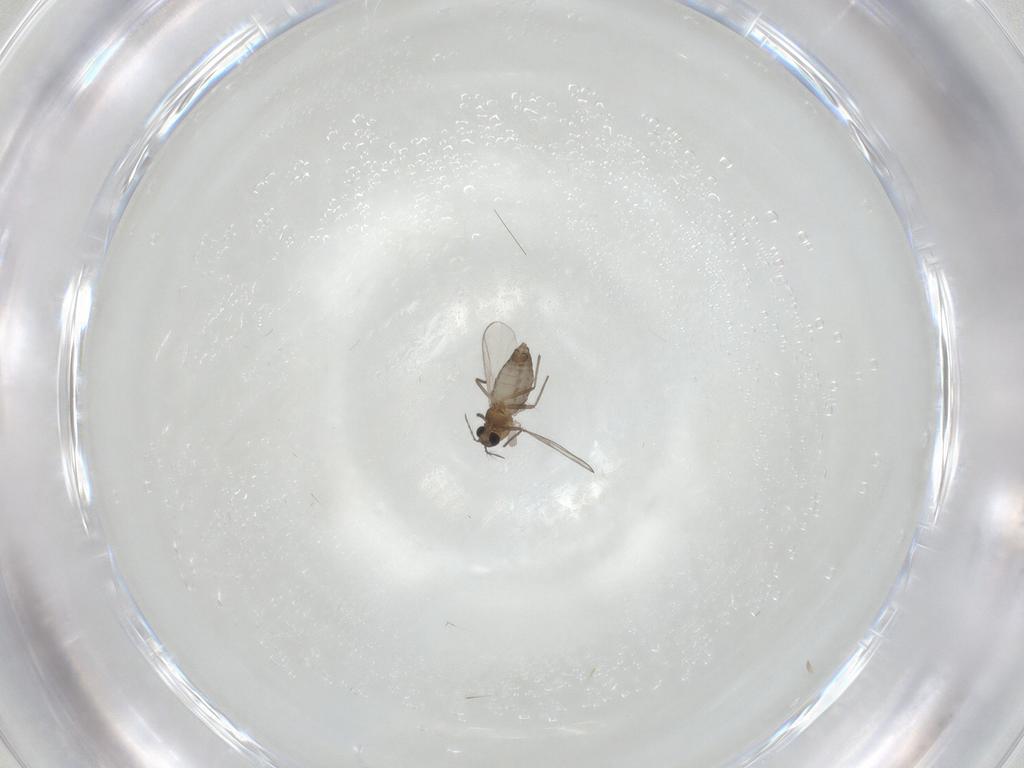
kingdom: Animalia
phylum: Arthropoda
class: Insecta
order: Diptera
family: Chironomidae
